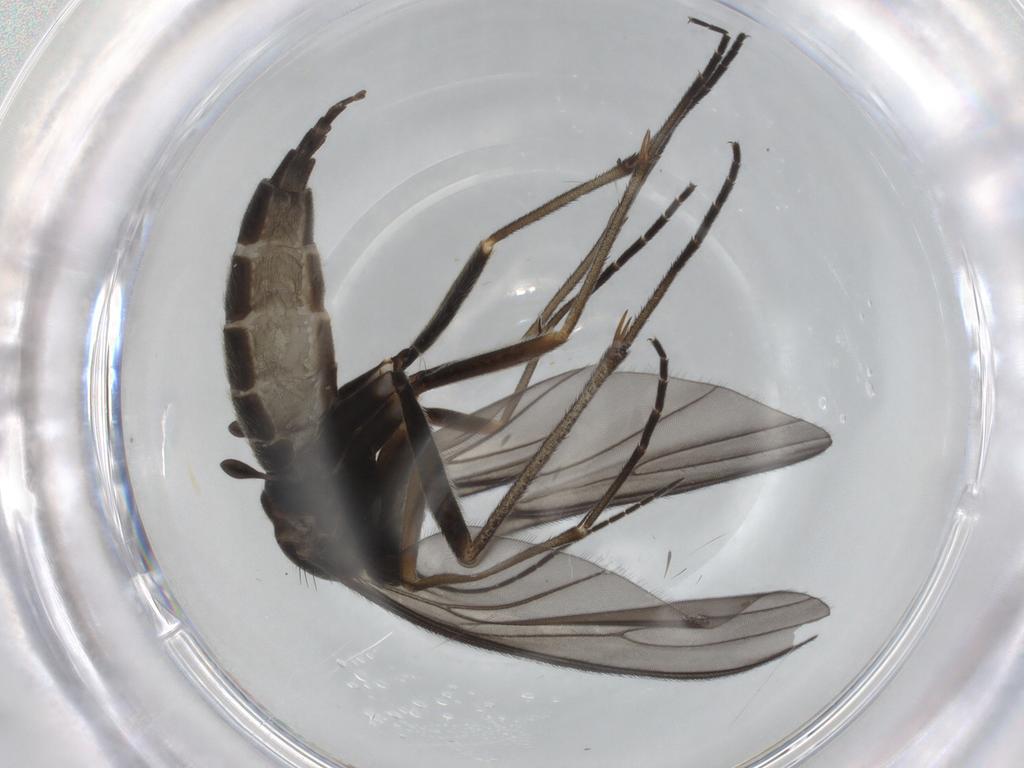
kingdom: Animalia
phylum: Arthropoda
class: Insecta
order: Diptera
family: Sciaridae
